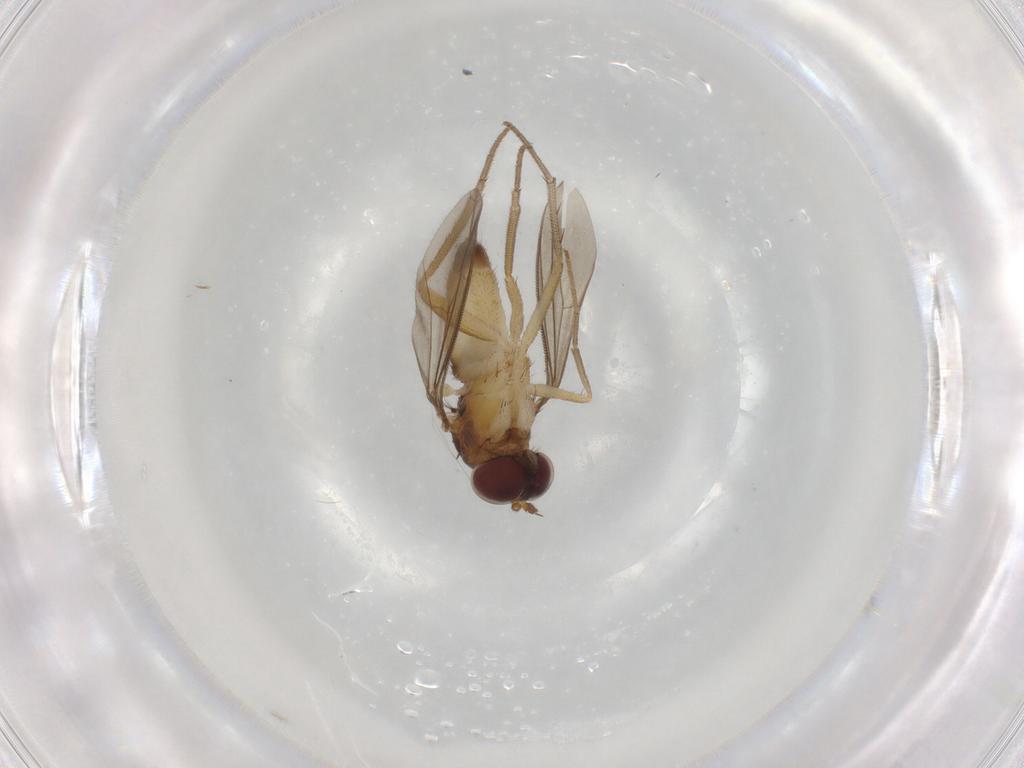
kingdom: Animalia
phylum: Arthropoda
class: Insecta
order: Diptera
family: Dolichopodidae
